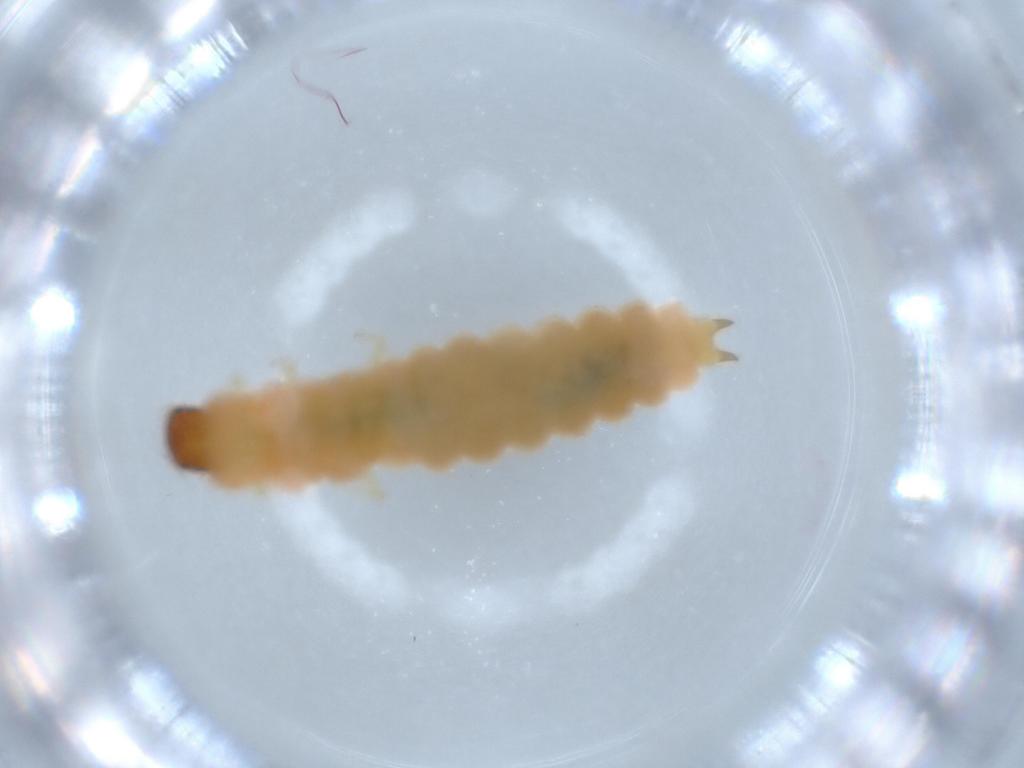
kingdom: Animalia
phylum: Arthropoda
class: Insecta
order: Coleoptera
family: Melyridae
